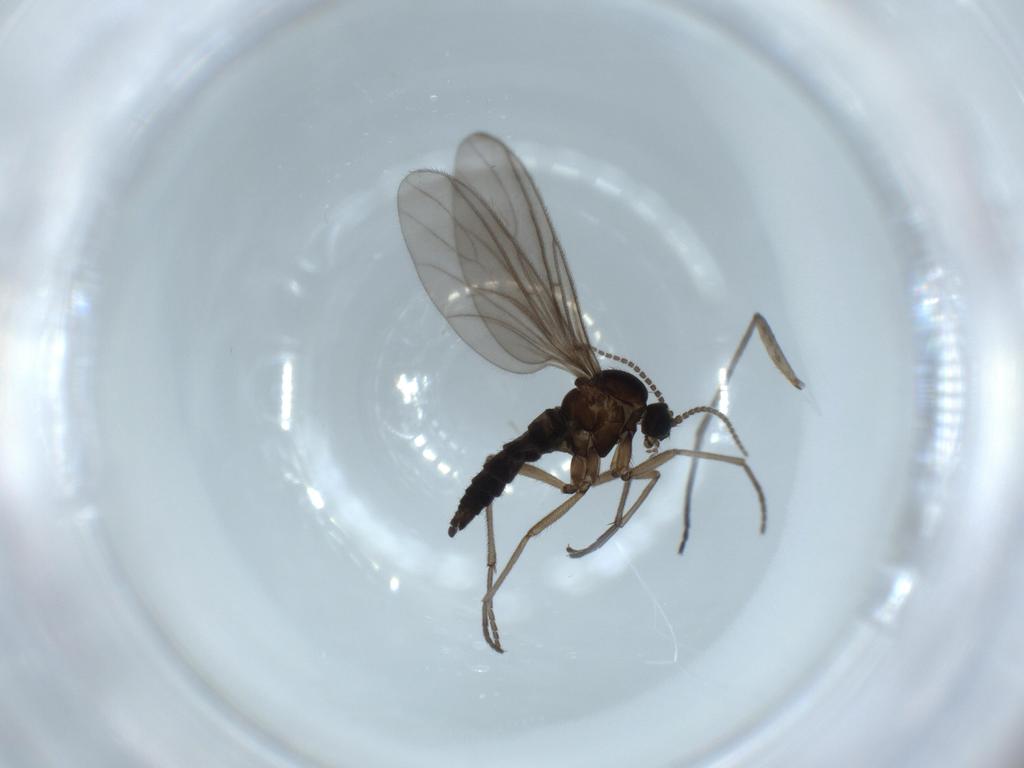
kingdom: Animalia
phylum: Arthropoda
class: Insecta
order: Diptera
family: Sciaridae
